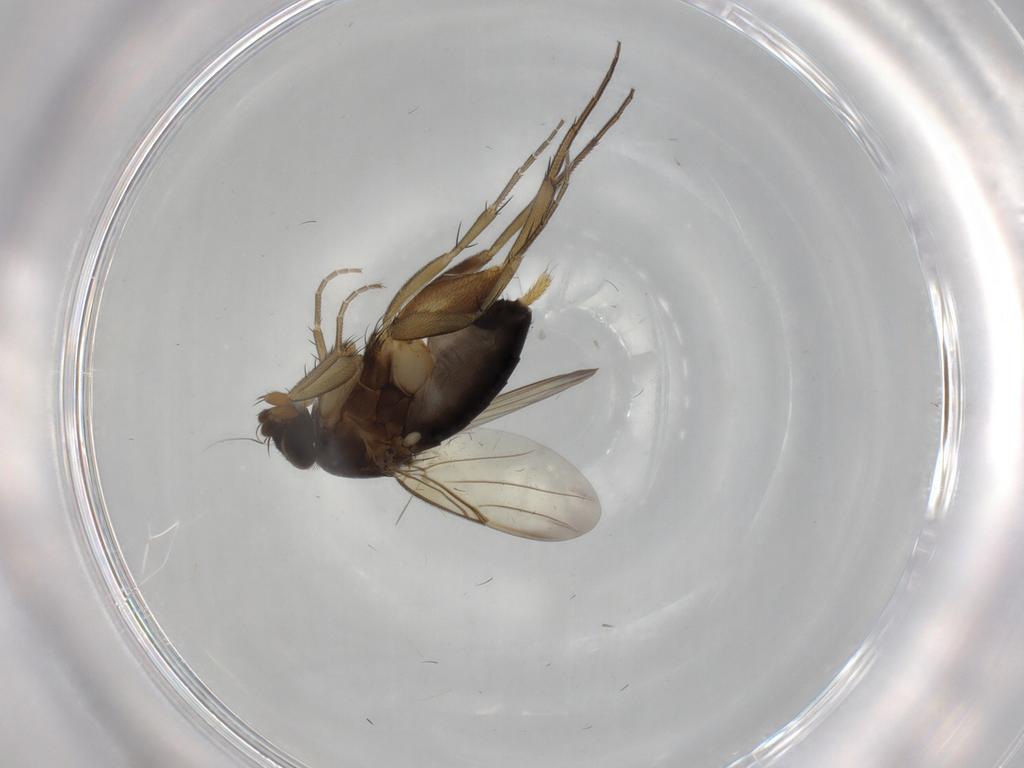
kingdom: Animalia
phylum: Arthropoda
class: Insecta
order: Diptera
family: Phoridae
